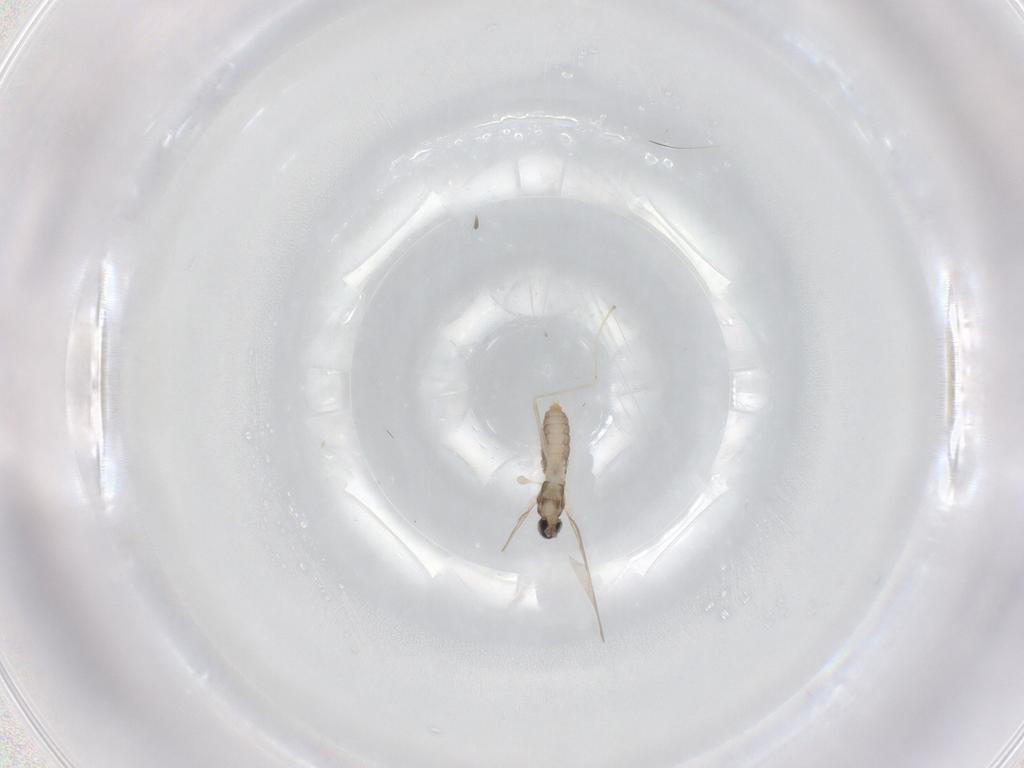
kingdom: Animalia
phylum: Arthropoda
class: Insecta
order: Diptera
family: Cecidomyiidae
